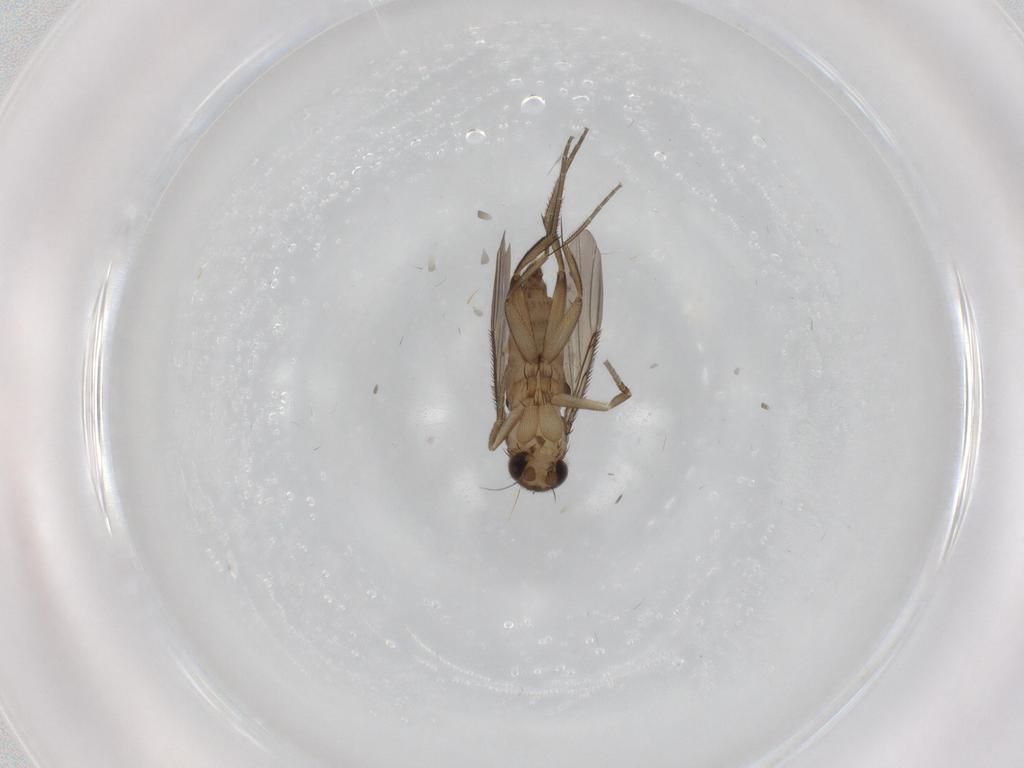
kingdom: Animalia
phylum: Arthropoda
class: Insecta
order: Diptera
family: Phoridae
